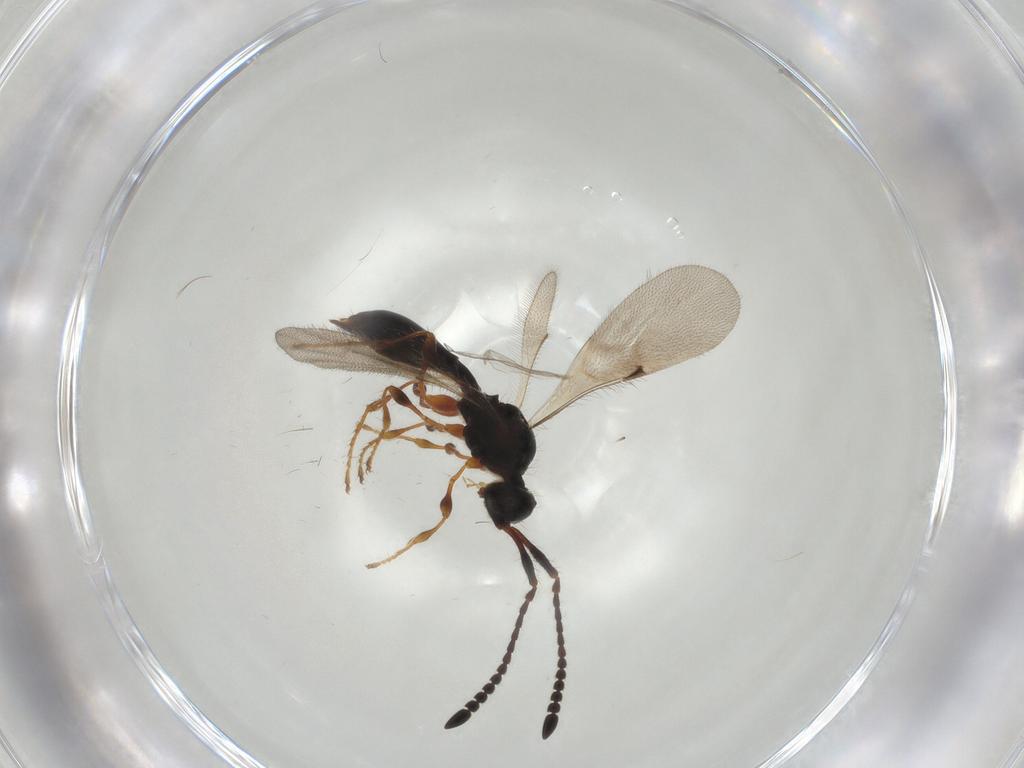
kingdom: Animalia
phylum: Arthropoda
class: Insecta
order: Hymenoptera
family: Diapriidae
